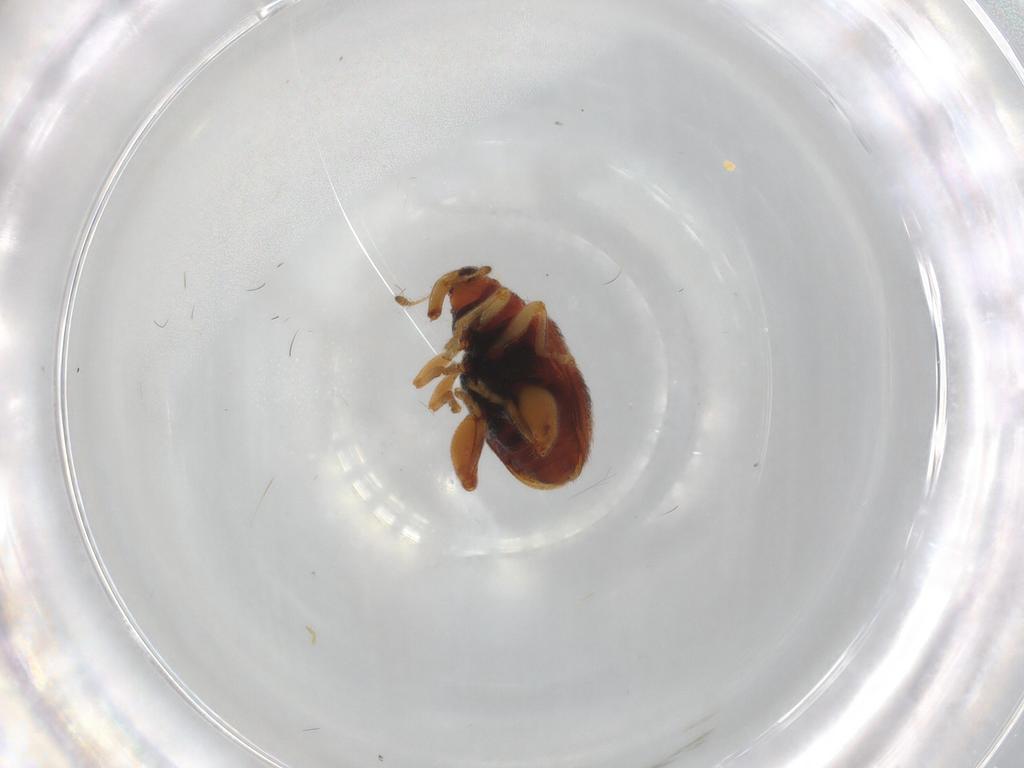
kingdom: Animalia
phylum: Arthropoda
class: Insecta
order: Coleoptera
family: Curculionidae
